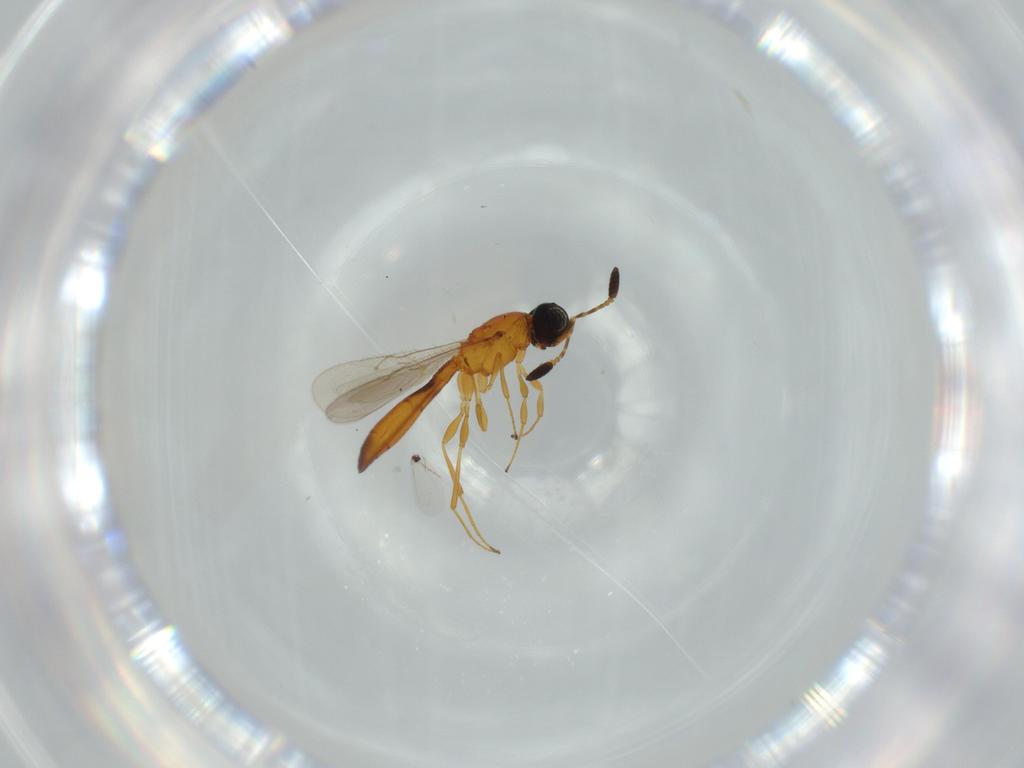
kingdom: Animalia
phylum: Arthropoda
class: Insecta
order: Hymenoptera
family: Scelionidae
